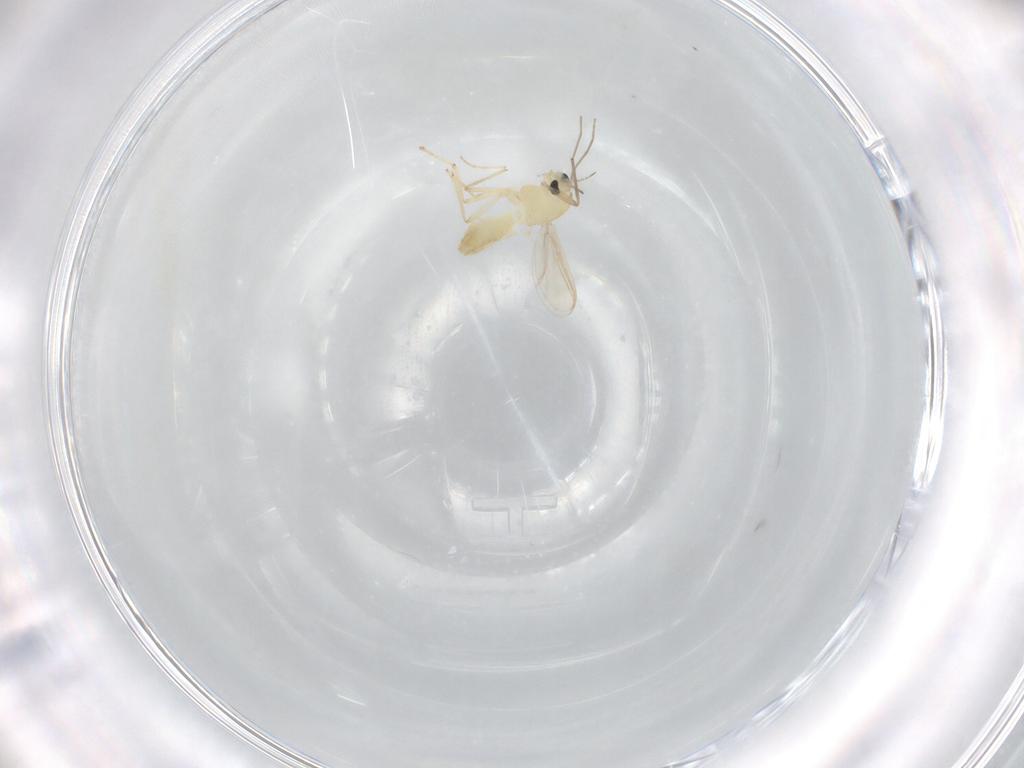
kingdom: Animalia
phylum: Arthropoda
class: Insecta
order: Diptera
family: Chironomidae
